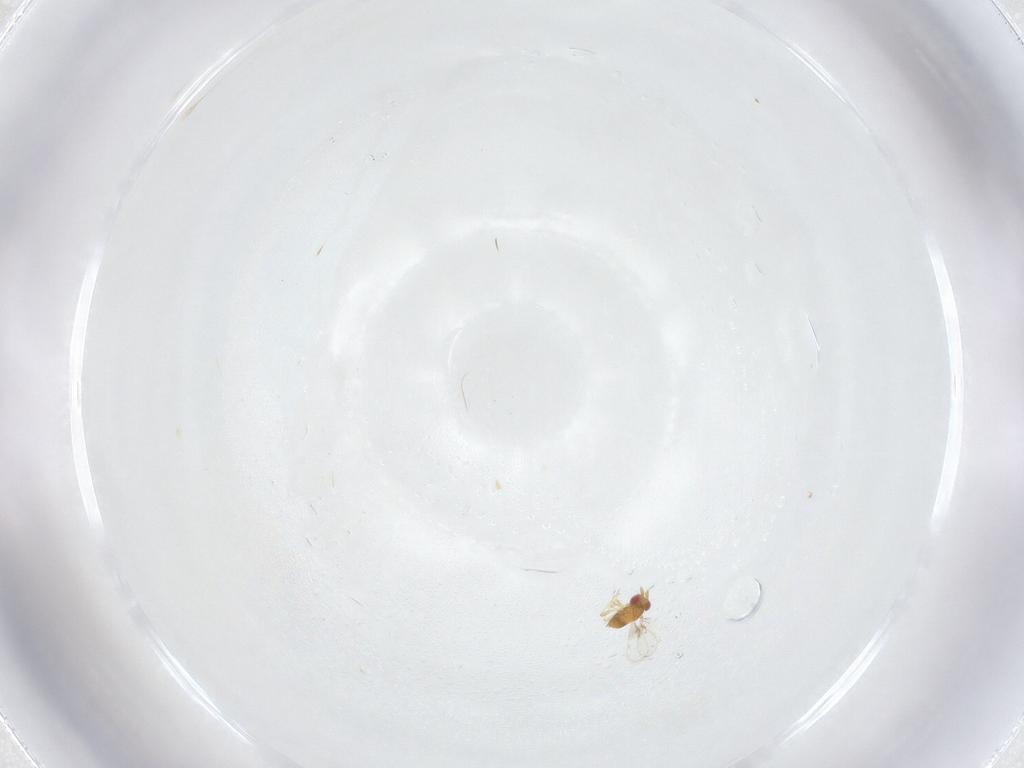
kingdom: Animalia
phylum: Arthropoda
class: Insecta
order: Hymenoptera
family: Trichogrammatidae
